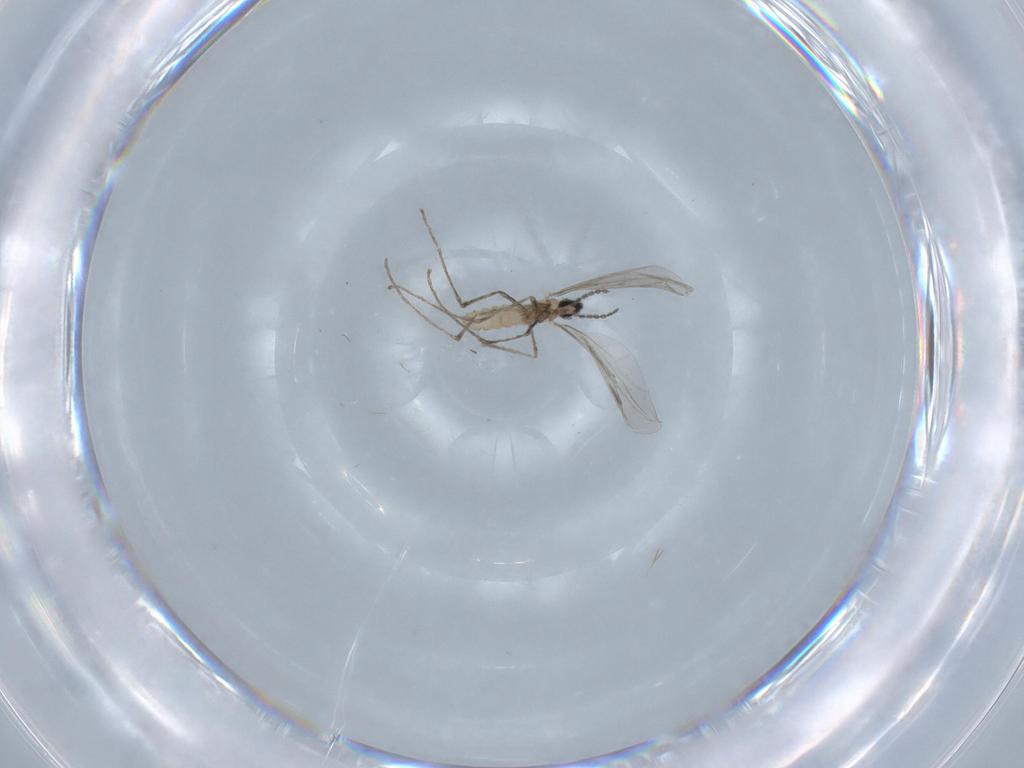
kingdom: Animalia
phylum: Arthropoda
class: Insecta
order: Diptera
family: Cecidomyiidae
